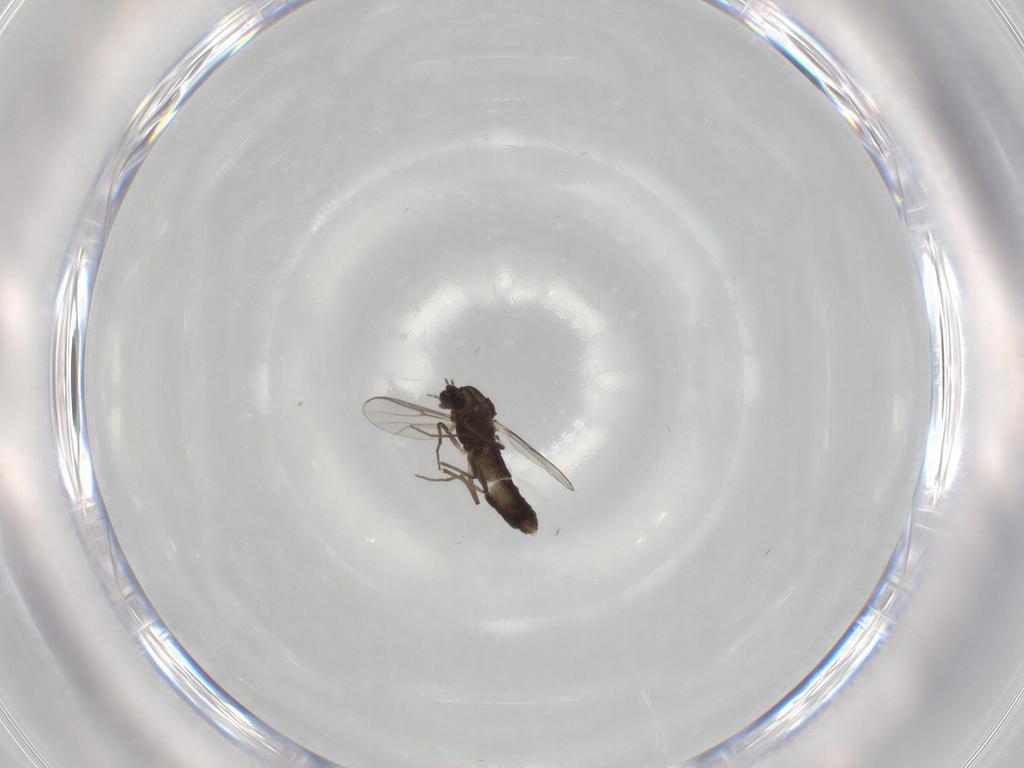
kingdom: Animalia
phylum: Arthropoda
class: Insecta
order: Diptera
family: Chironomidae
